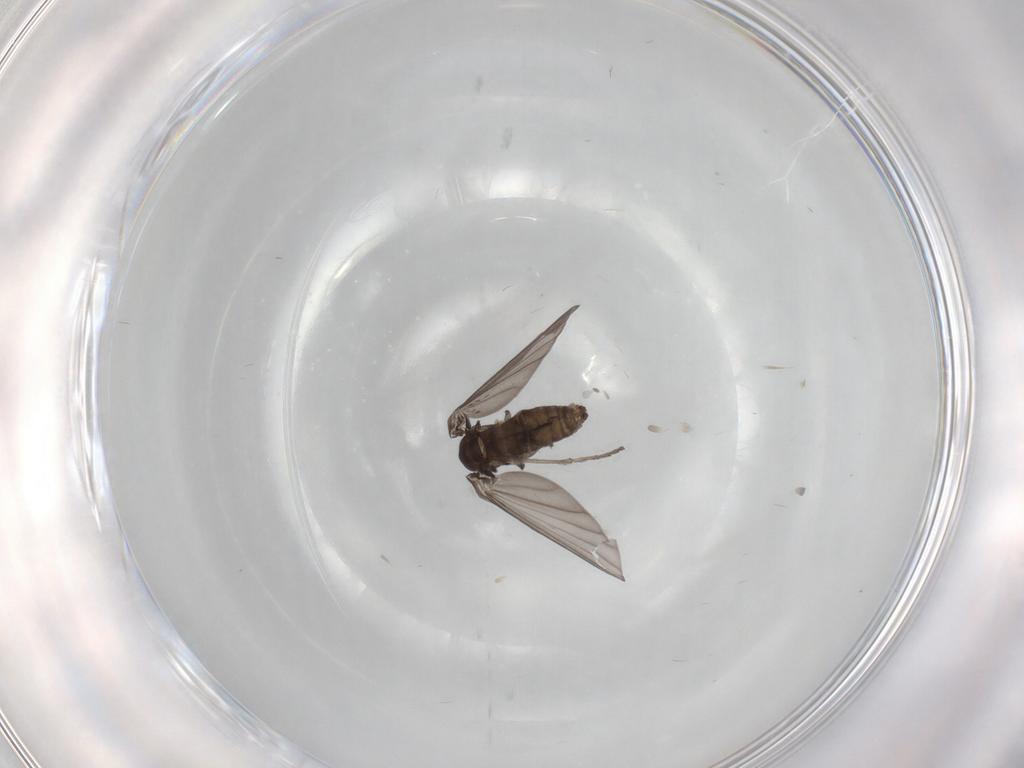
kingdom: Animalia
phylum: Arthropoda
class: Insecta
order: Diptera
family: Psychodidae
